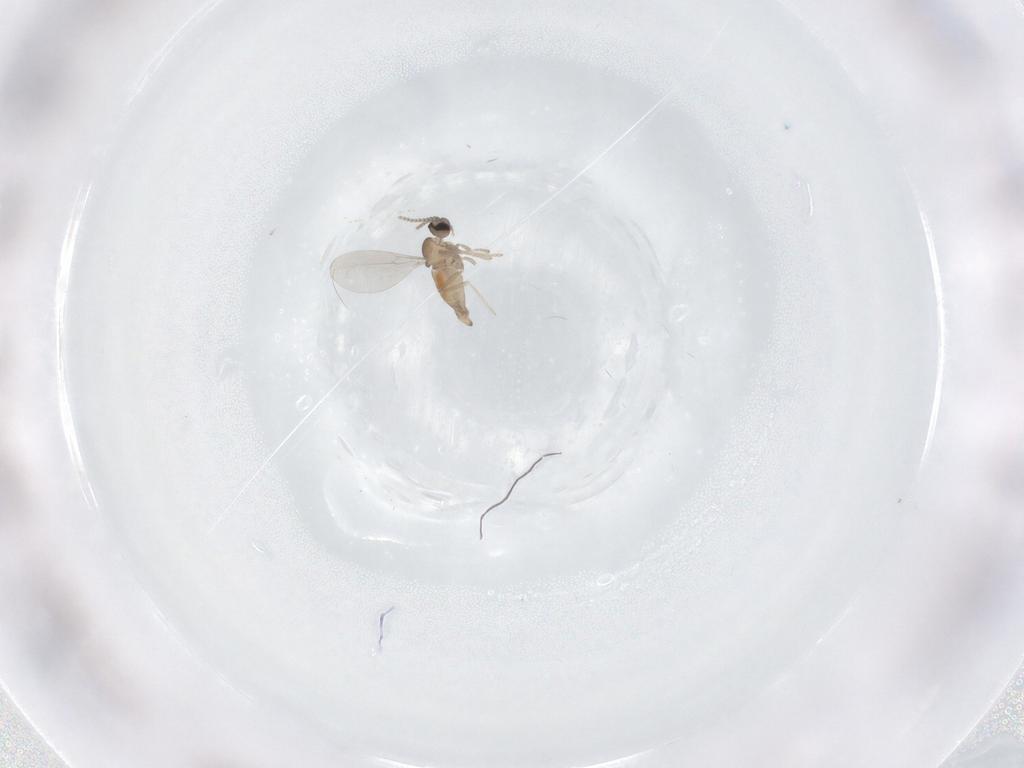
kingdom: Animalia
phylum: Arthropoda
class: Insecta
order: Diptera
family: Cecidomyiidae
